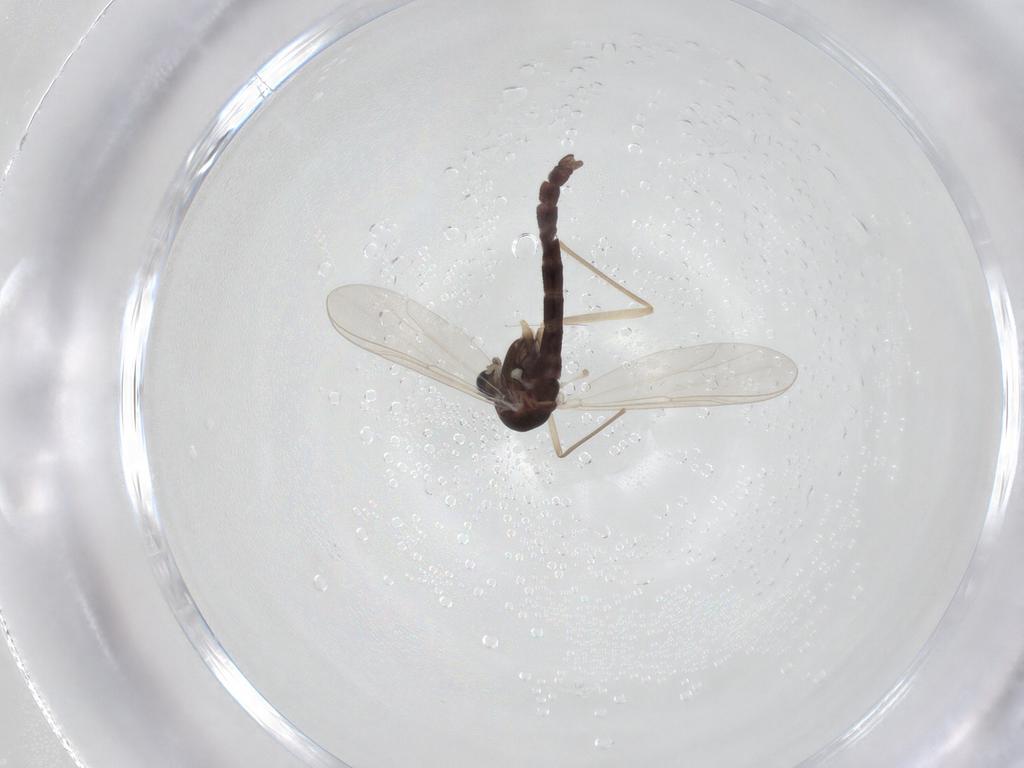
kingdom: Animalia
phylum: Arthropoda
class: Insecta
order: Diptera
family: Chironomidae
